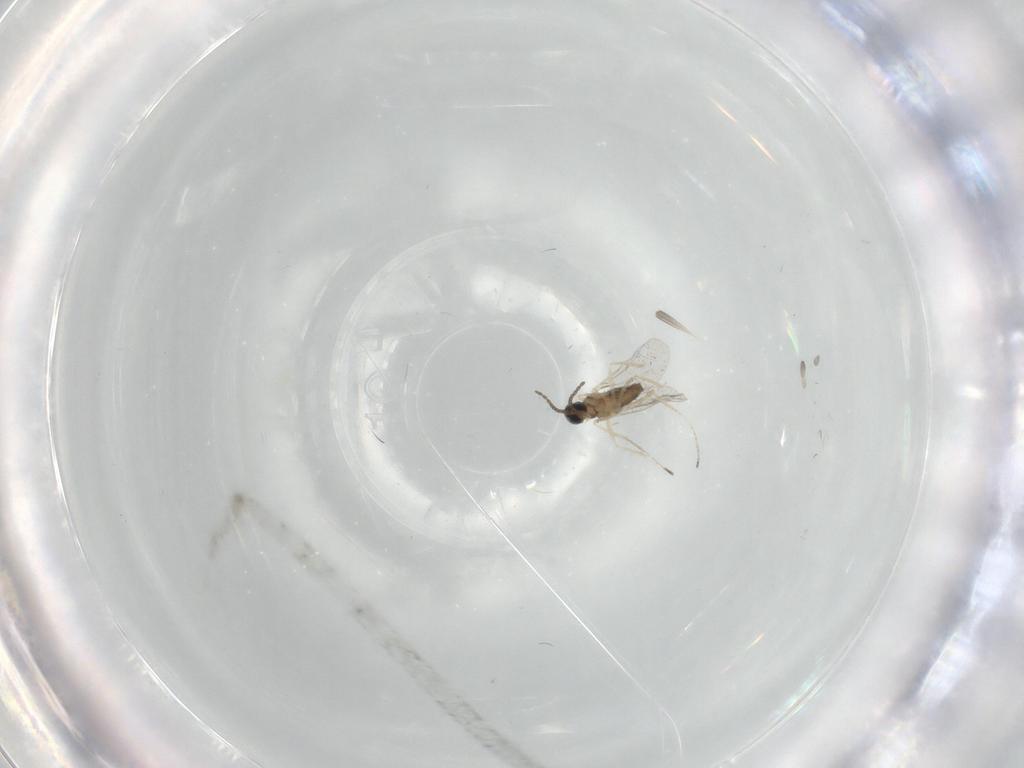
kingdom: Animalia
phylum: Arthropoda
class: Insecta
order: Diptera
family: Cecidomyiidae
